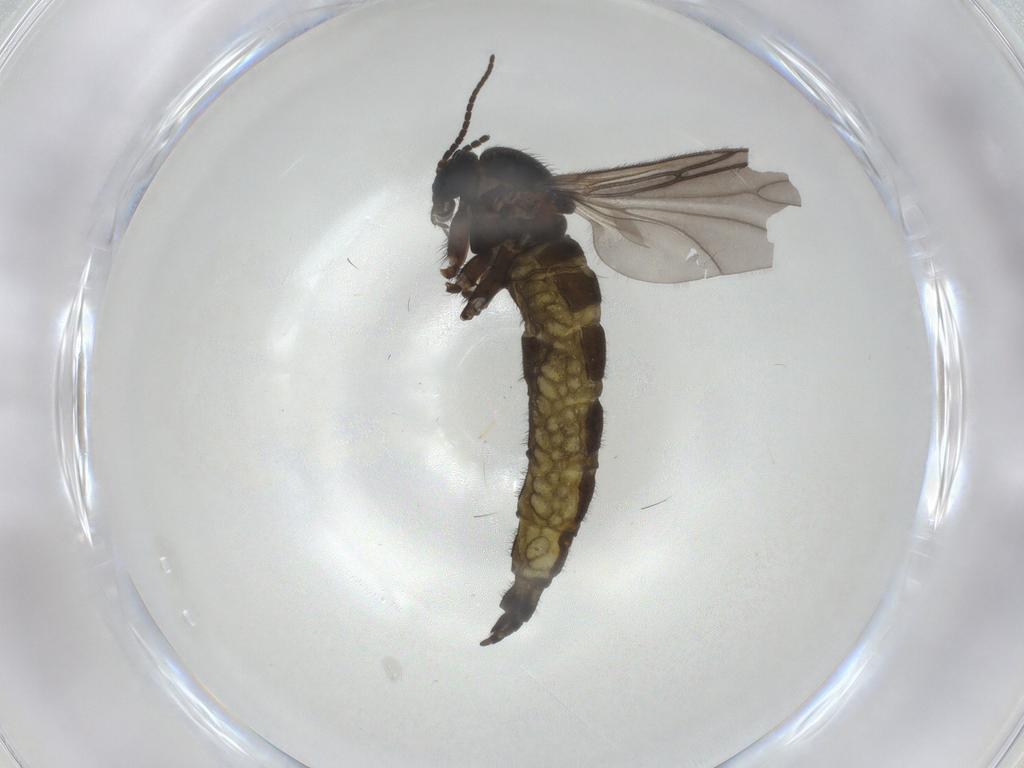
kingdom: Animalia
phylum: Arthropoda
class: Insecta
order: Diptera
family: Sciaridae
